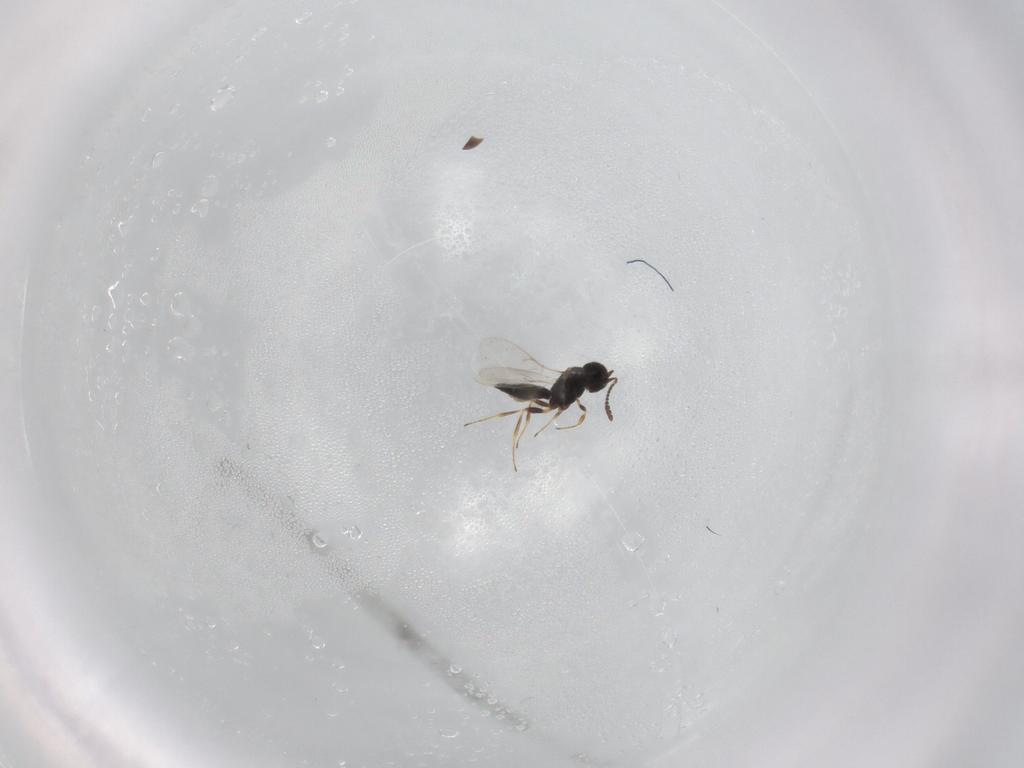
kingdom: Animalia
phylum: Arthropoda
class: Insecta
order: Hymenoptera
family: Scelionidae
